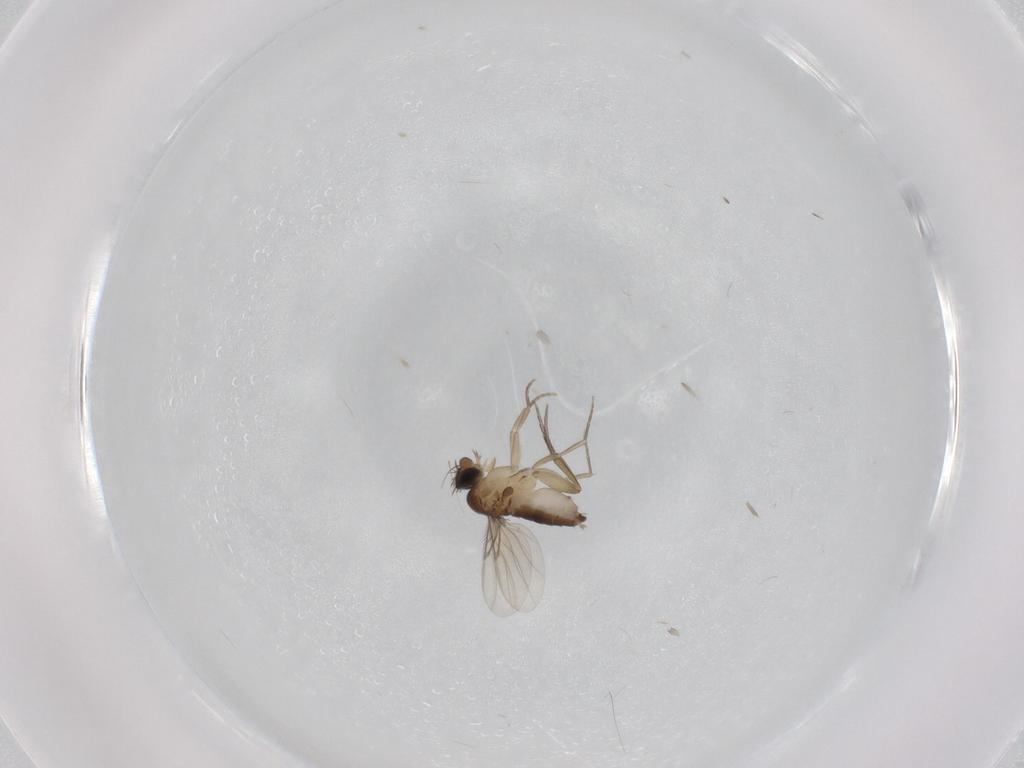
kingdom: Animalia
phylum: Arthropoda
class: Insecta
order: Diptera
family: Phoridae
